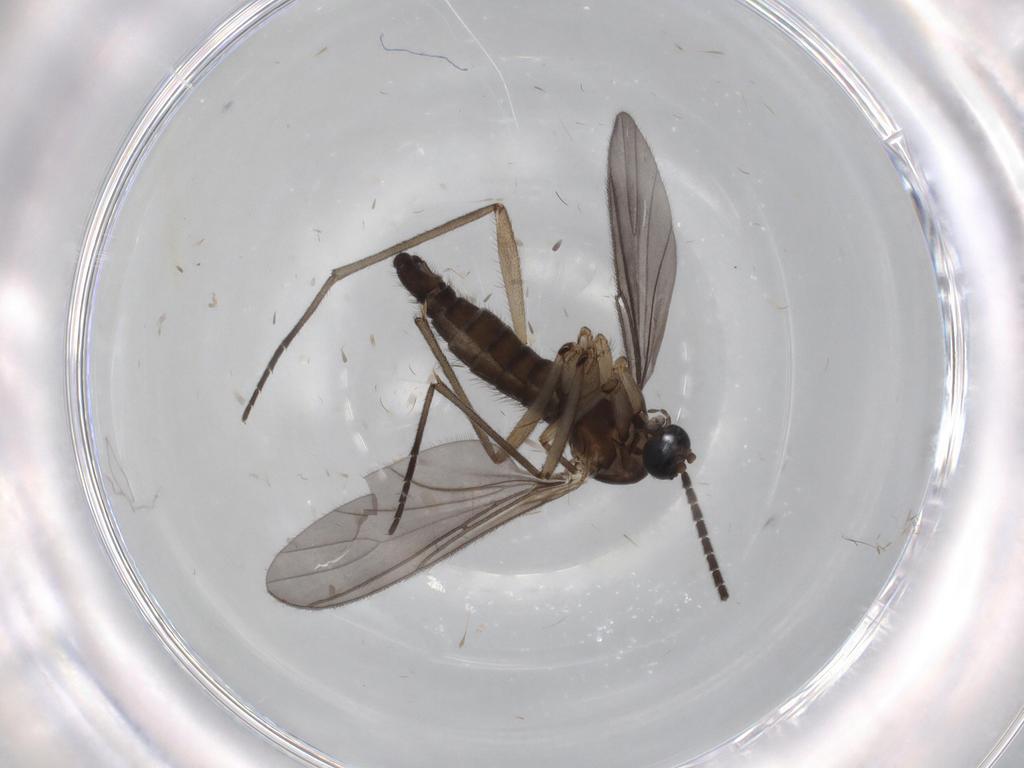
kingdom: Animalia
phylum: Arthropoda
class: Insecta
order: Diptera
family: Sciaridae
